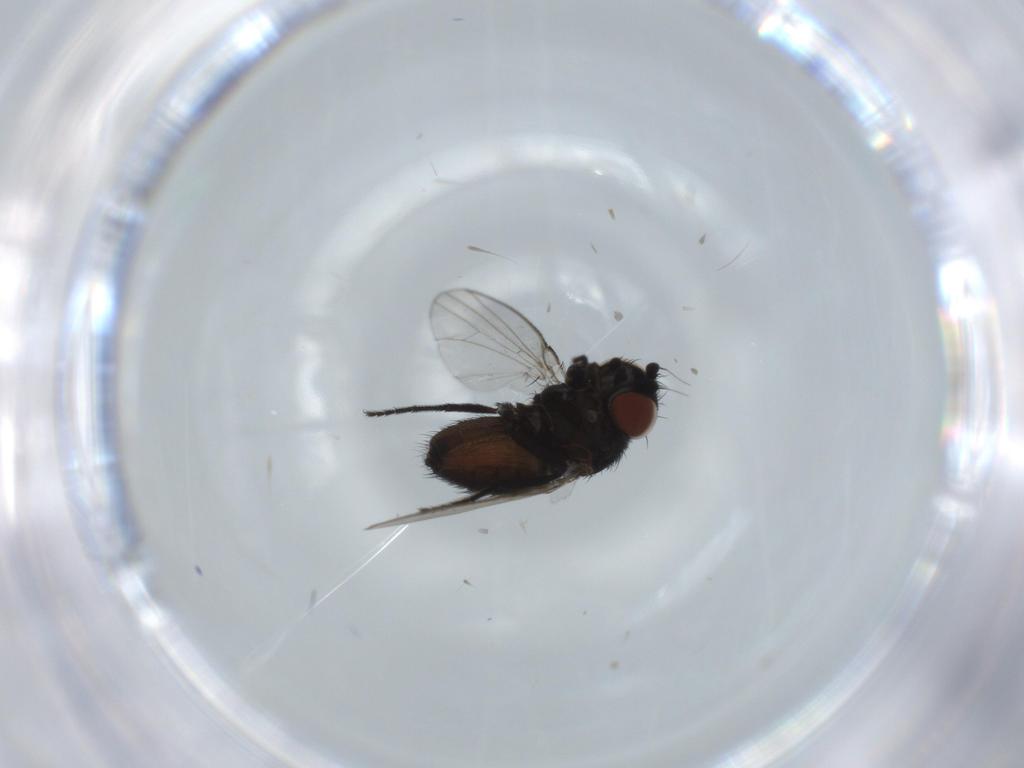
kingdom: Animalia
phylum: Arthropoda
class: Insecta
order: Diptera
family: Milichiidae
